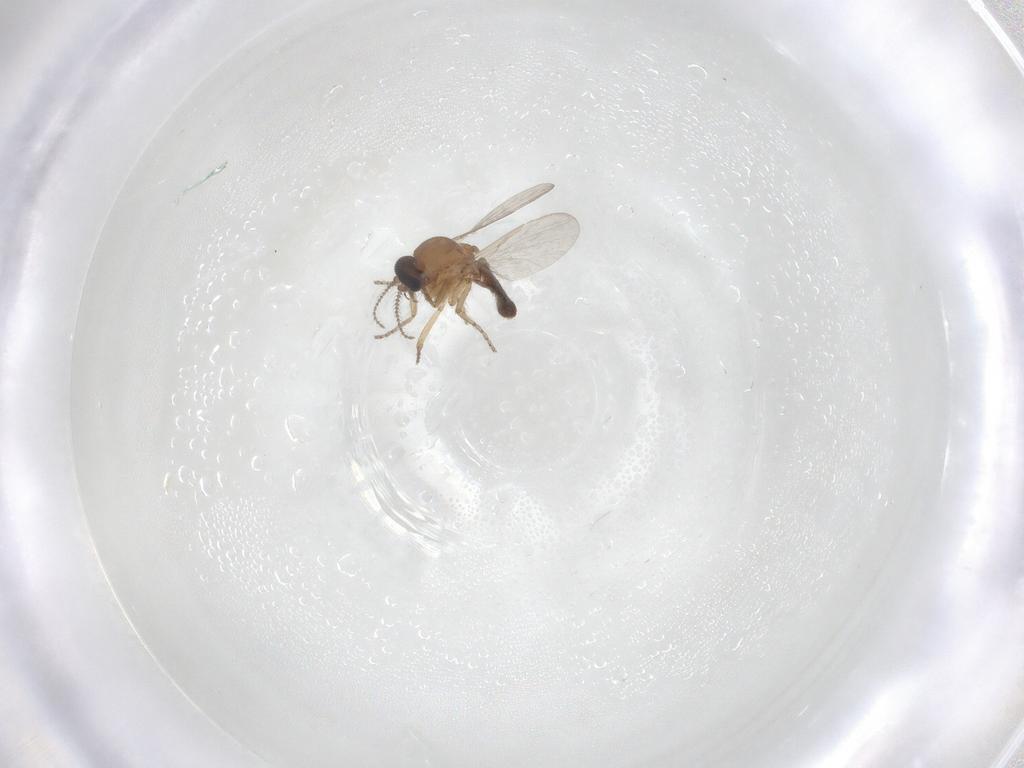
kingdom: Animalia
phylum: Arthropoda
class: Insecta
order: Diptera
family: Ceratopogonidae
